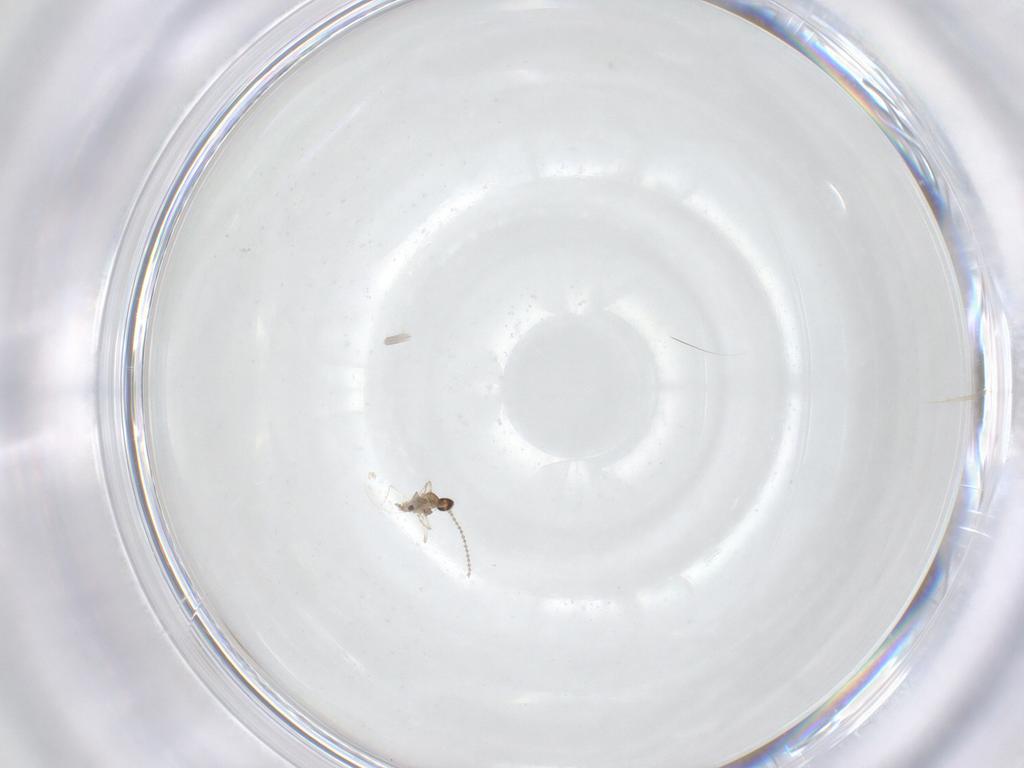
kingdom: Animalia
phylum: Arthropoda
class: Insecta
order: Diptera
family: Cecidomyiidae
